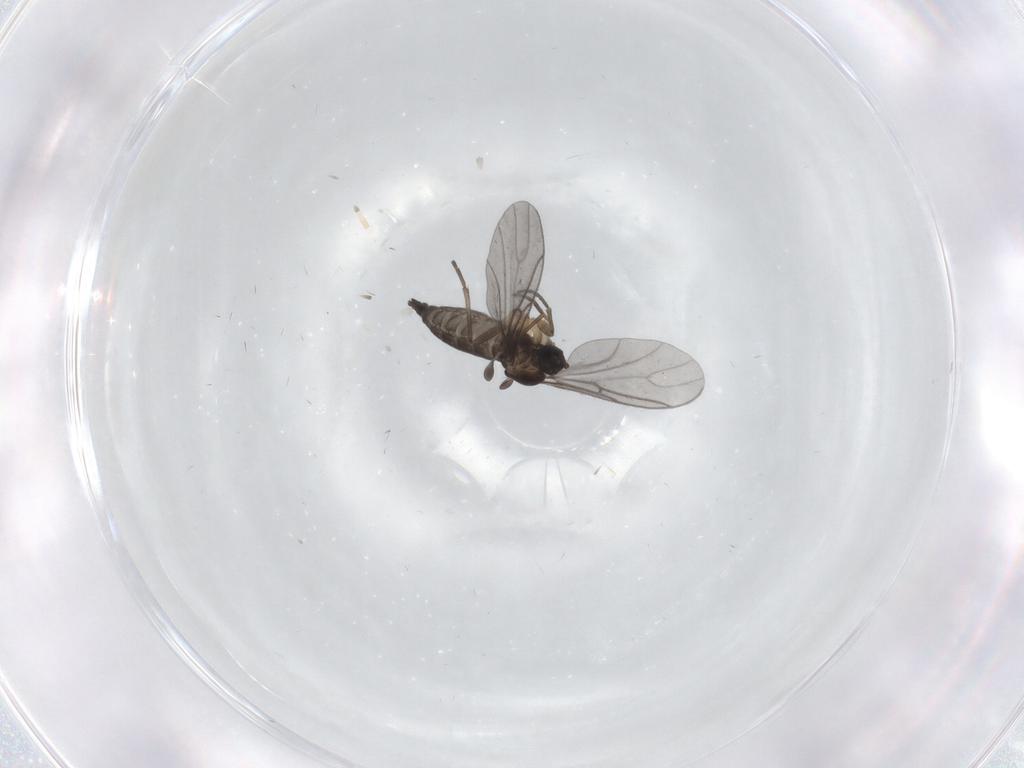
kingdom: Animalia
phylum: Arthropoda
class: Insecta
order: Diptera
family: Sciaridae
